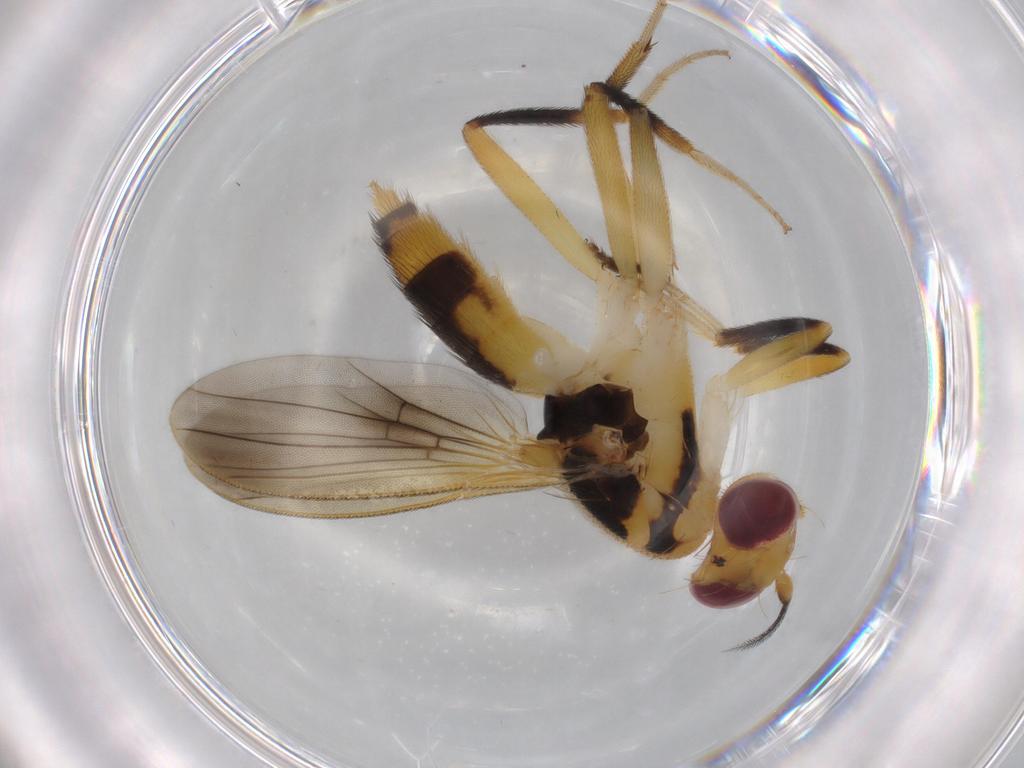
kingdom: Animalia
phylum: Arthropoda
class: Insecta
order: Diptera
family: Clusiidae
